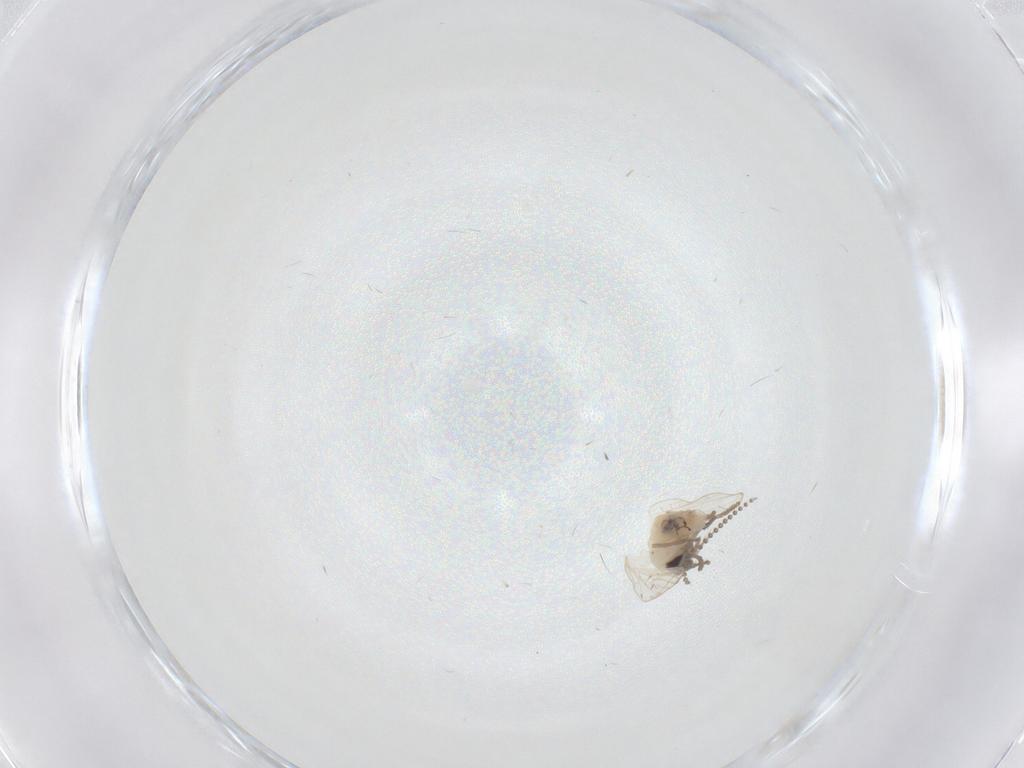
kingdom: Animalia
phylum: Arthropoda
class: Insecta
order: Diptera
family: Psychodidae
